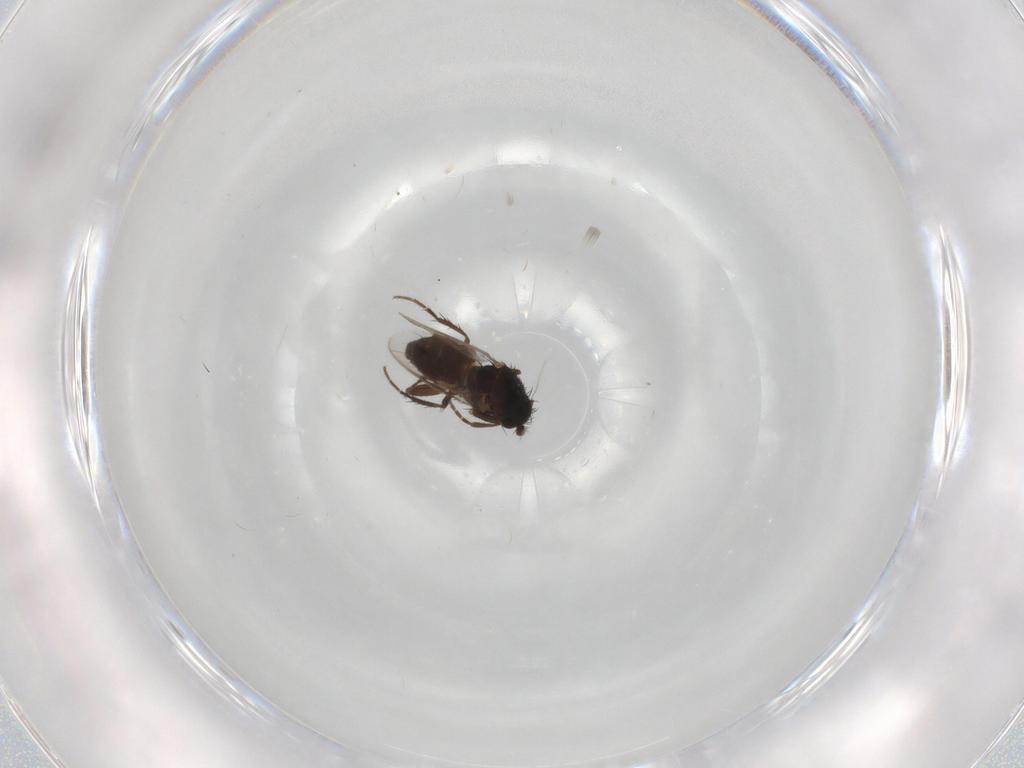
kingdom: Animalia
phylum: Arthropoda
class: Insecta
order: Diptera
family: Sphaeroceridae
